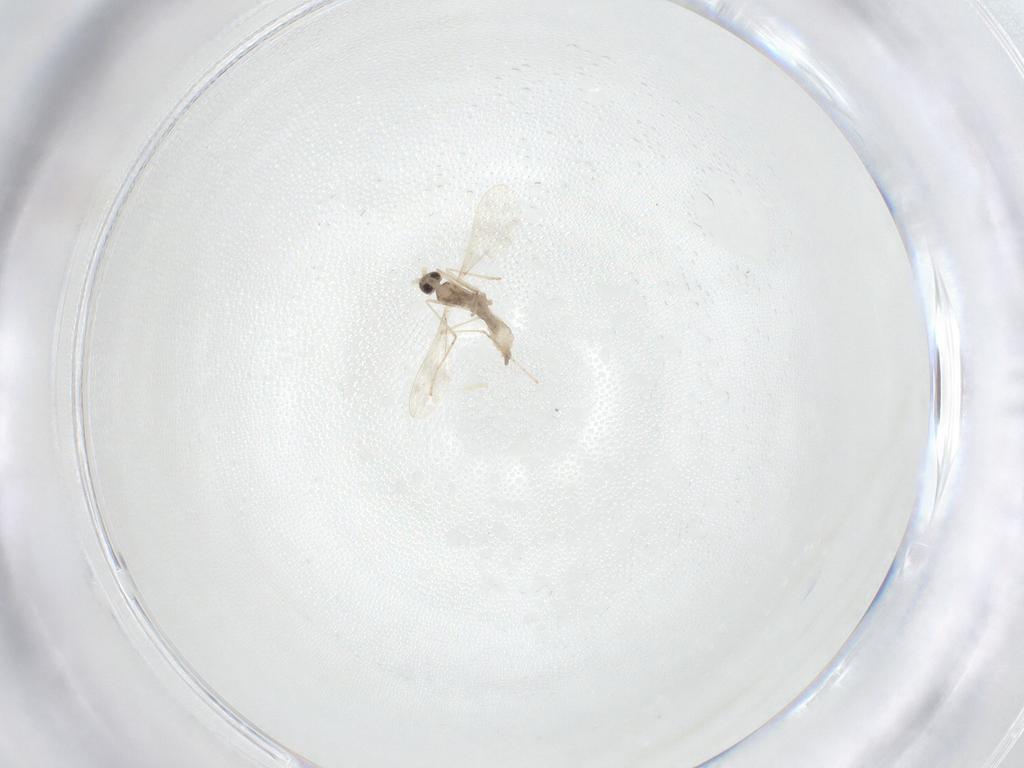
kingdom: Animalia
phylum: Arthropoda
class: Insecta
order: Diptera
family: Cecidomyiidae
